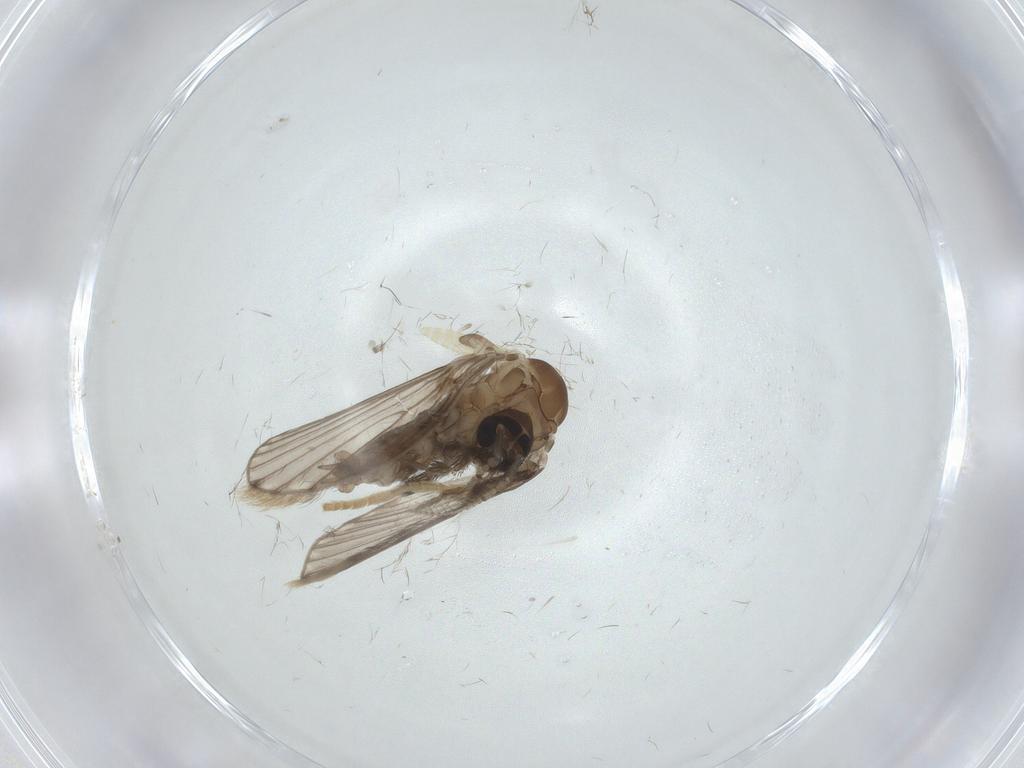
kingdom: Animalia
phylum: Arthropoda
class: Insecta
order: Diptera
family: Psychodidae
